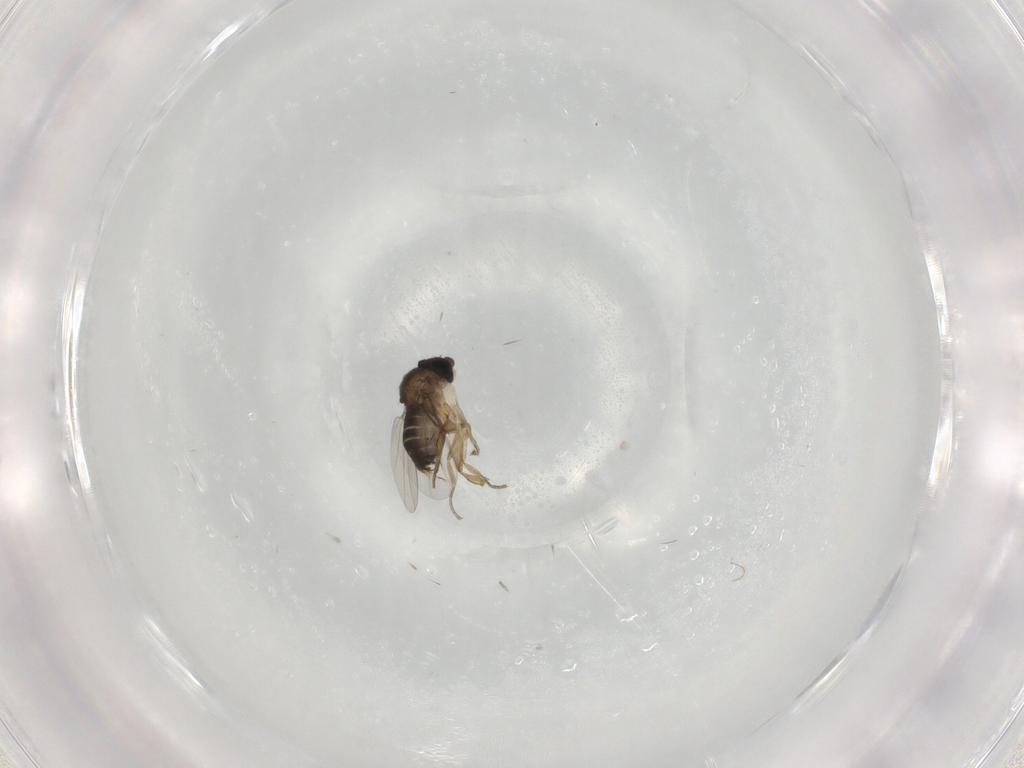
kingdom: Animalia
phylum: Arthropoda
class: Insecta
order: Diptera
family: Phoridae
